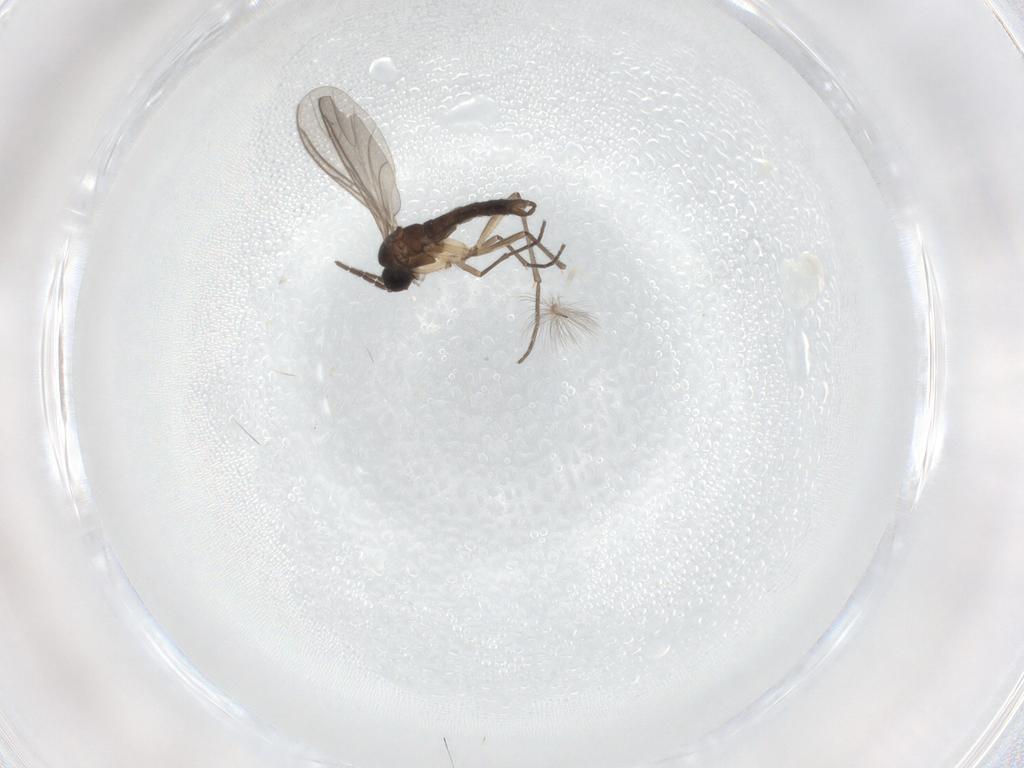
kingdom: Animalia
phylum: Arthropoda
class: Insecta
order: Diptera
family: Sciaridae
